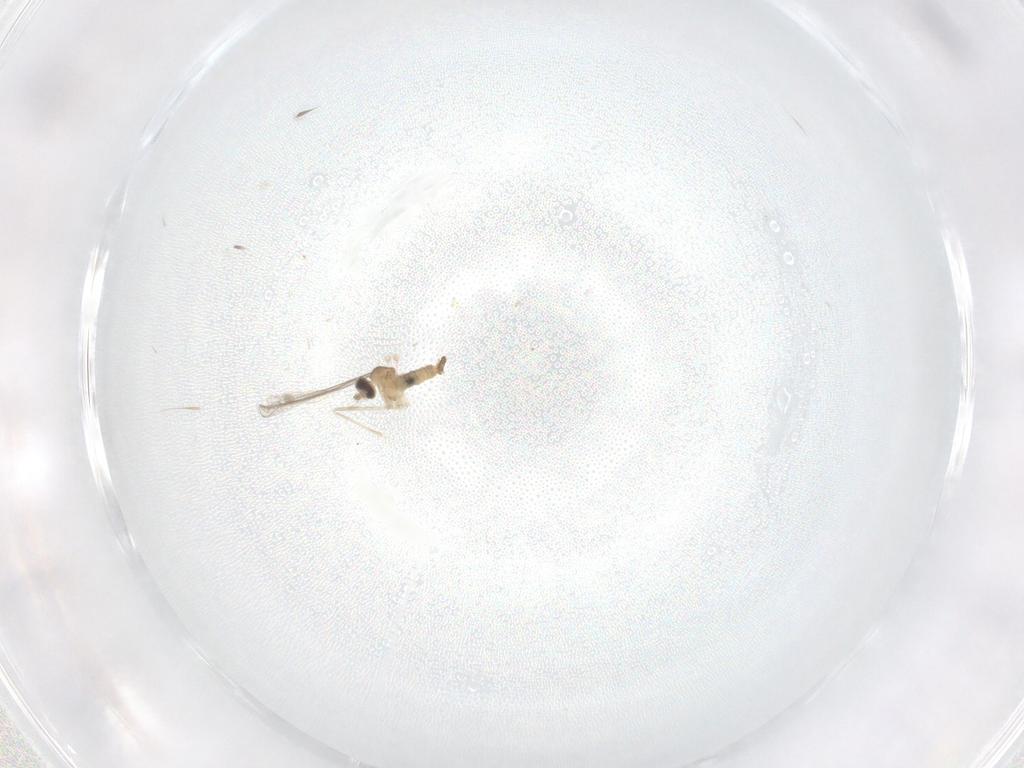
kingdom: Animalia
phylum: Arthropoda
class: Insecta
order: Diptera
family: Cecidomyiidae
